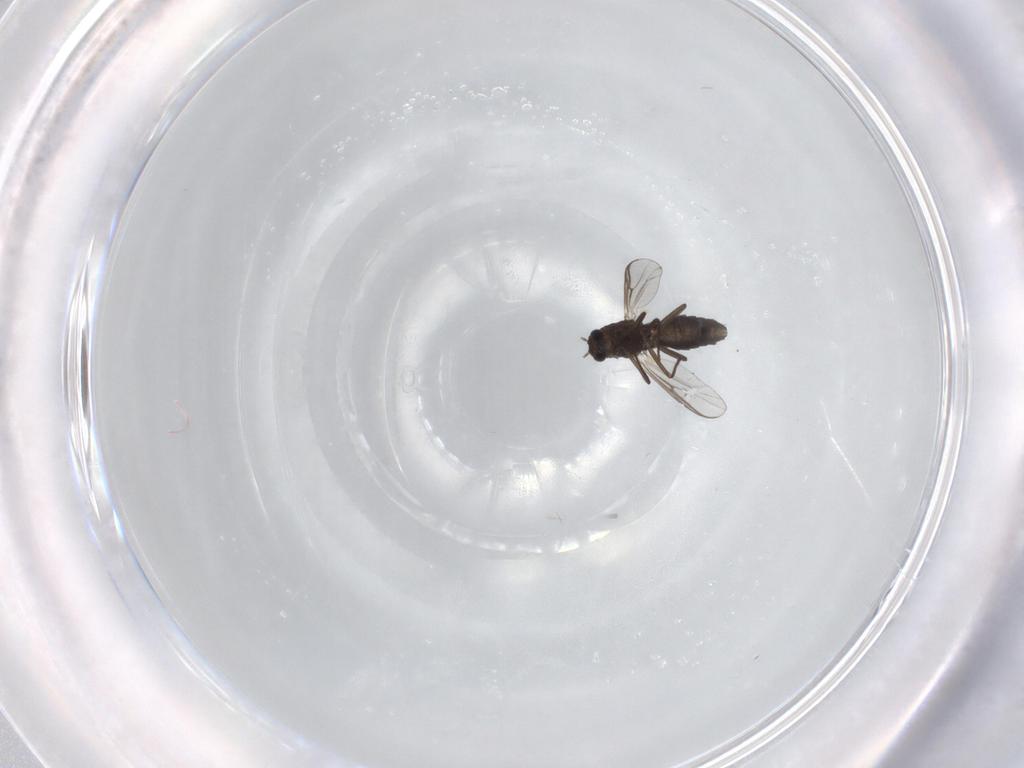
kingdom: Animalia
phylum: Arthropoda
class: Insecta
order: Diptera
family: Chironomidae
